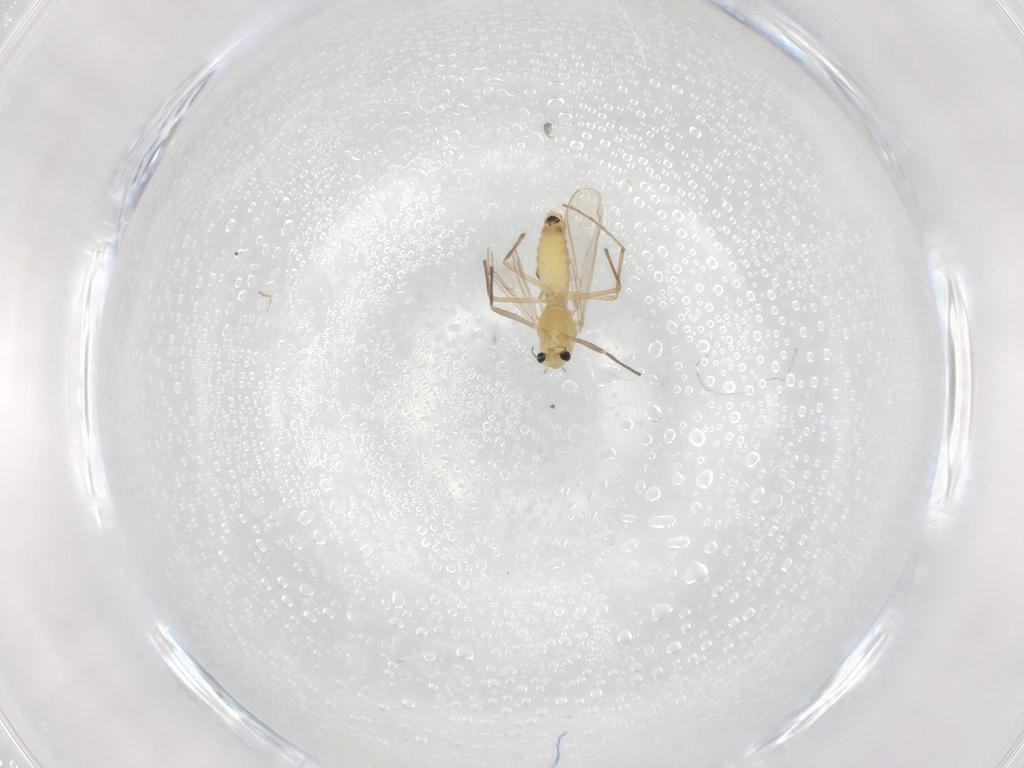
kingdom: Animalia
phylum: Arthropoda
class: Insecta
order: Diptera
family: Chironomidae
